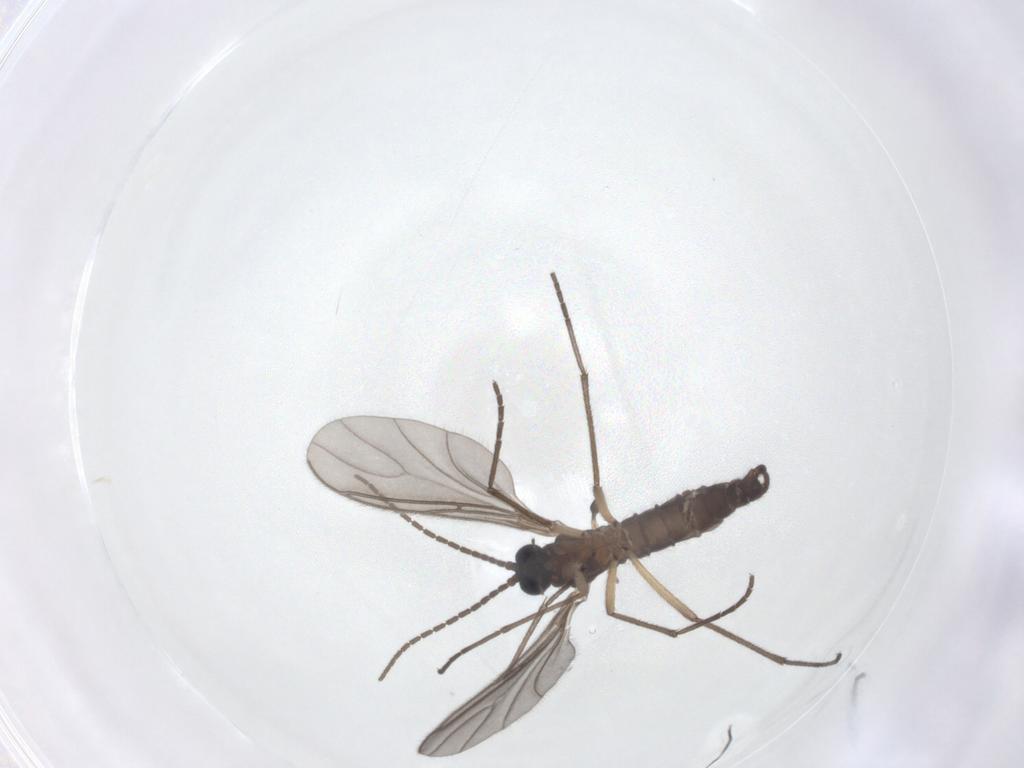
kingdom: Animalia
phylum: Arthropoda
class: Insecta
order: Diptera
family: Sciaridae
